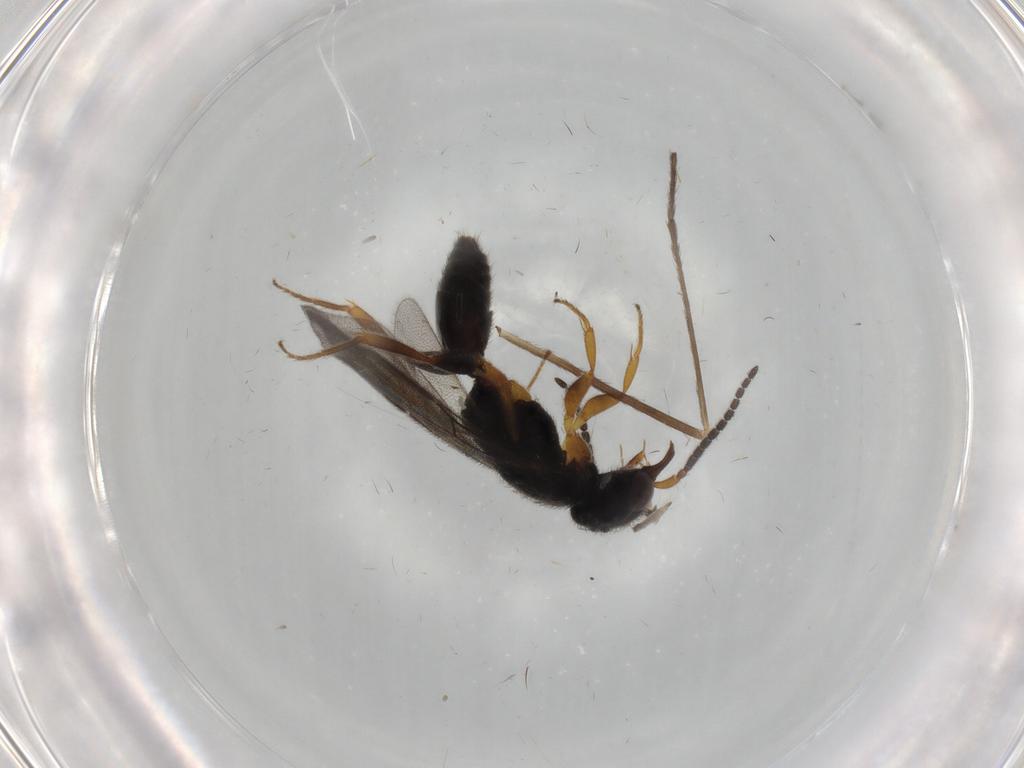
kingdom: Animalia
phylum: Arthropoda
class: Insecta
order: Hymenoptera
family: Bethylidae
